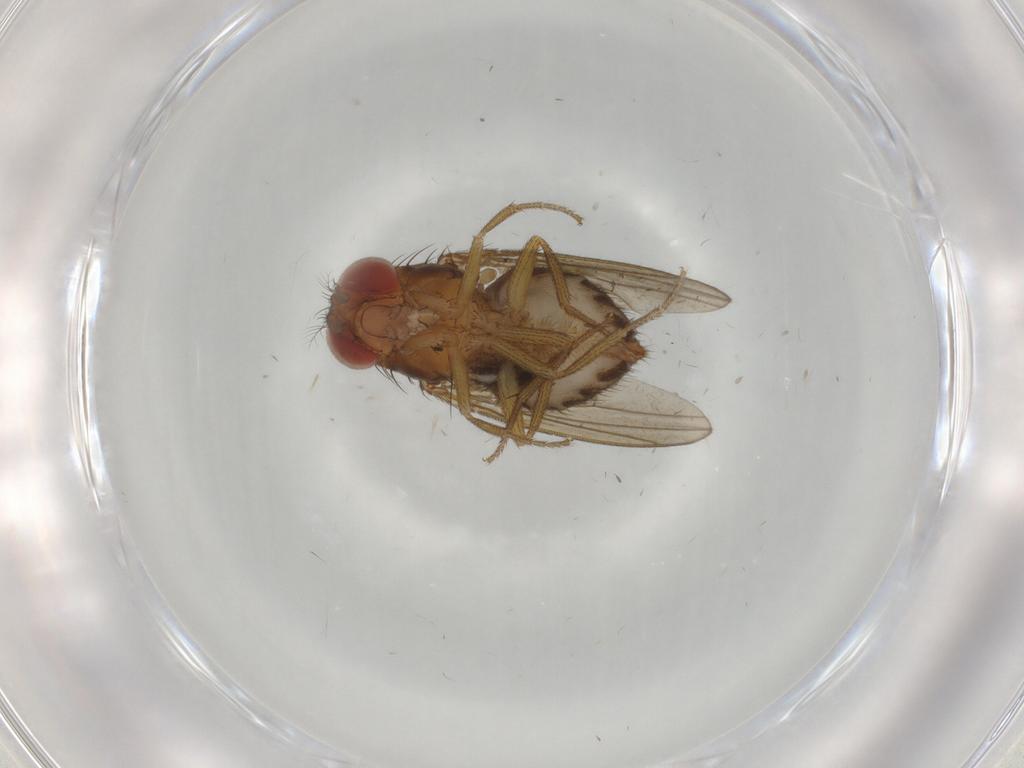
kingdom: Animalia
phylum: Arthropoda
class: Insecta
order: Diptera
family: Drosophilidae
